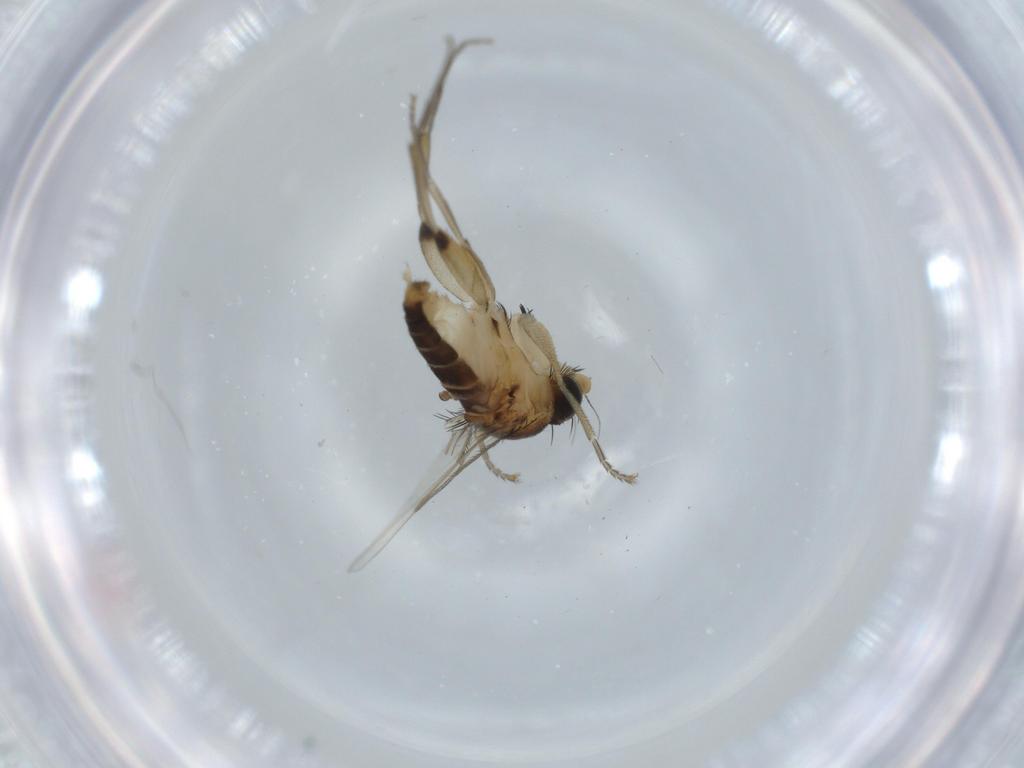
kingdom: Animalia
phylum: Arthropoda
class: Insecta
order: Diptera
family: Phoridae
